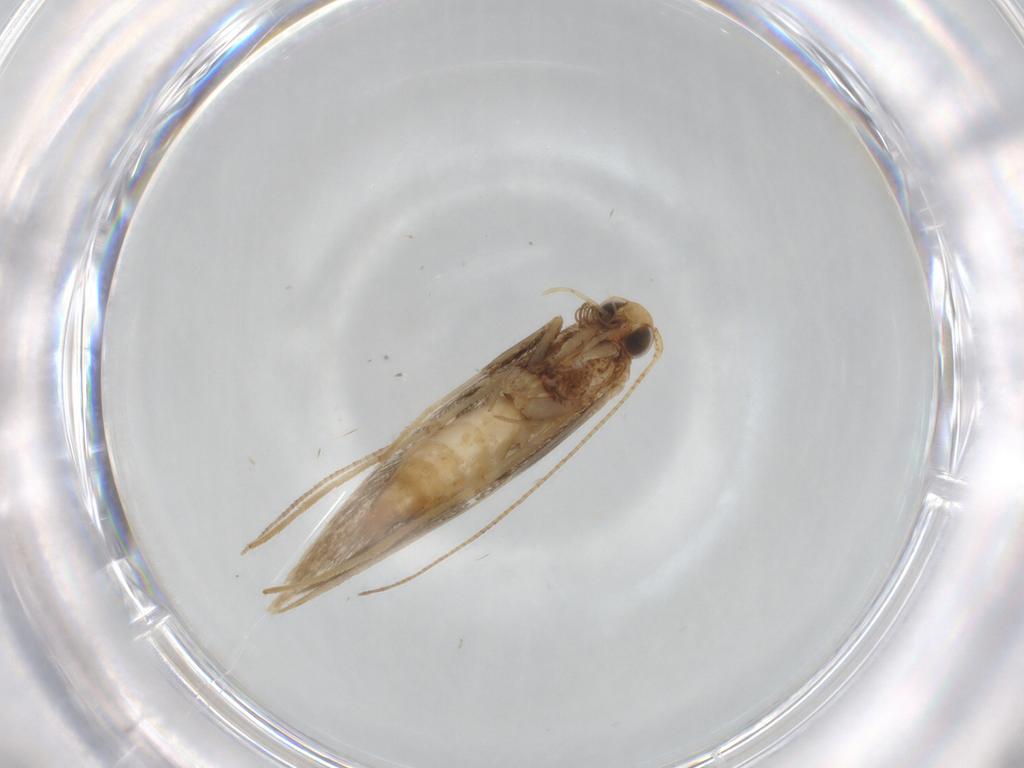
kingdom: Animalia
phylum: Arthropoda
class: Insecta
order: Lepidoptera
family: Gracillariidae
